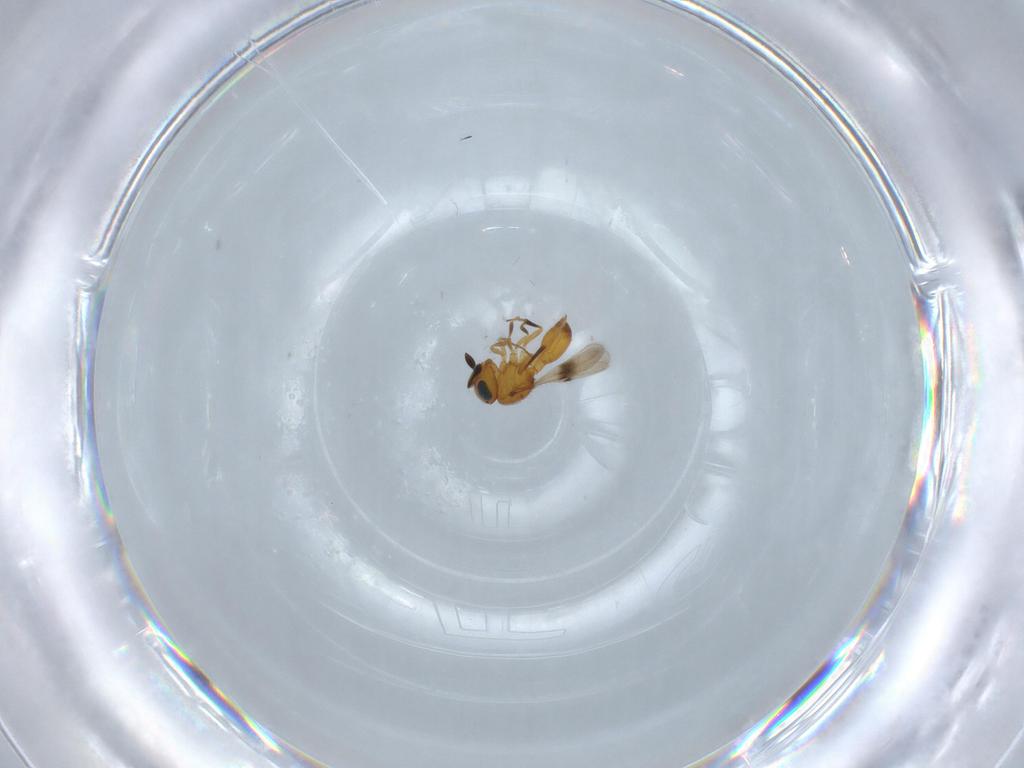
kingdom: Animalia
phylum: Arthropoda
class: Insecta
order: Hymenoptera
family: Scelionidae
